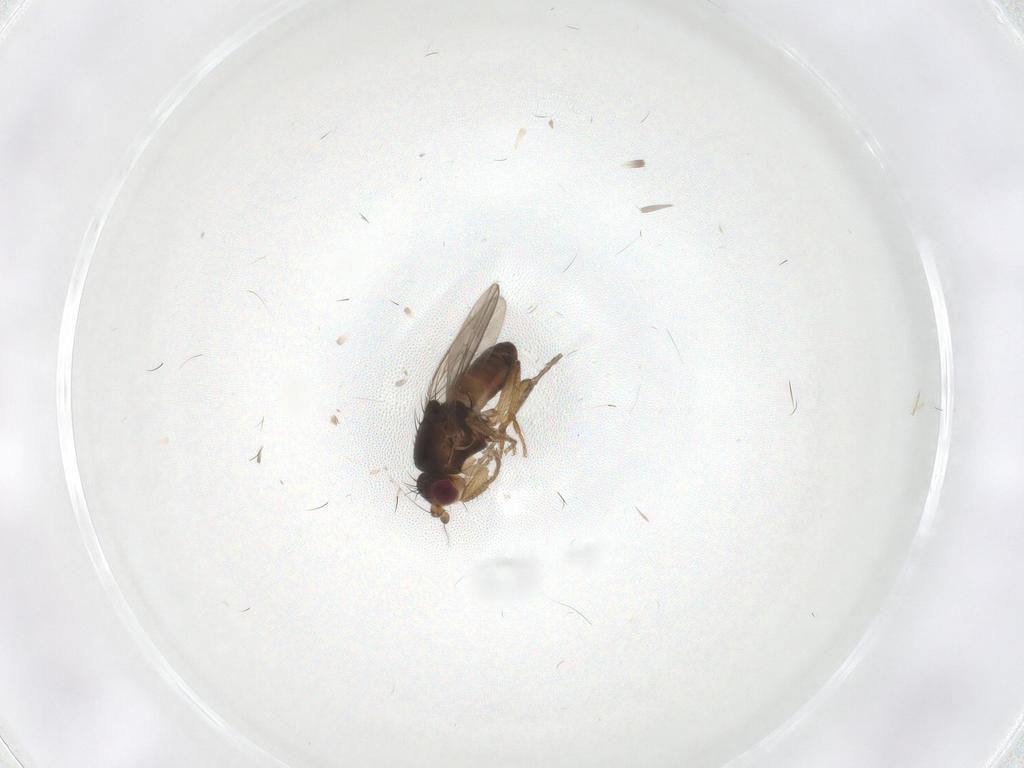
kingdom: Animalia
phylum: Arthropoda
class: Insecta
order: Diptera
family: Sphaeroceridae
